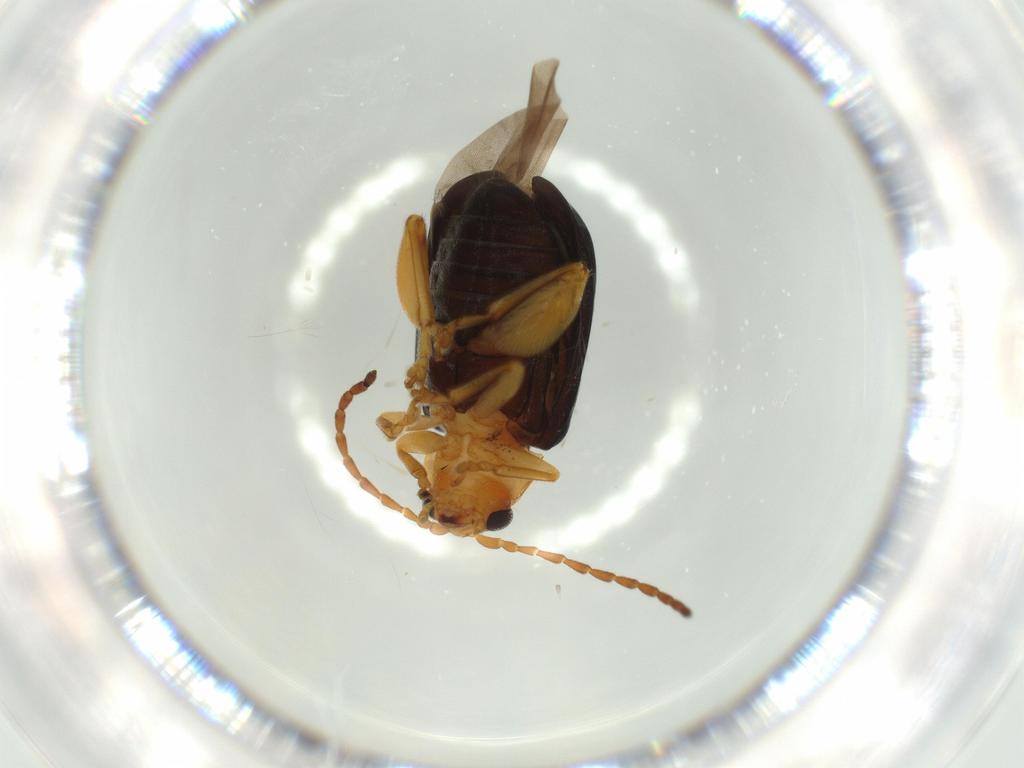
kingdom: Animalia
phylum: Arthropoda
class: Insecta
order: Coleoptera
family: Chrysomelidae
